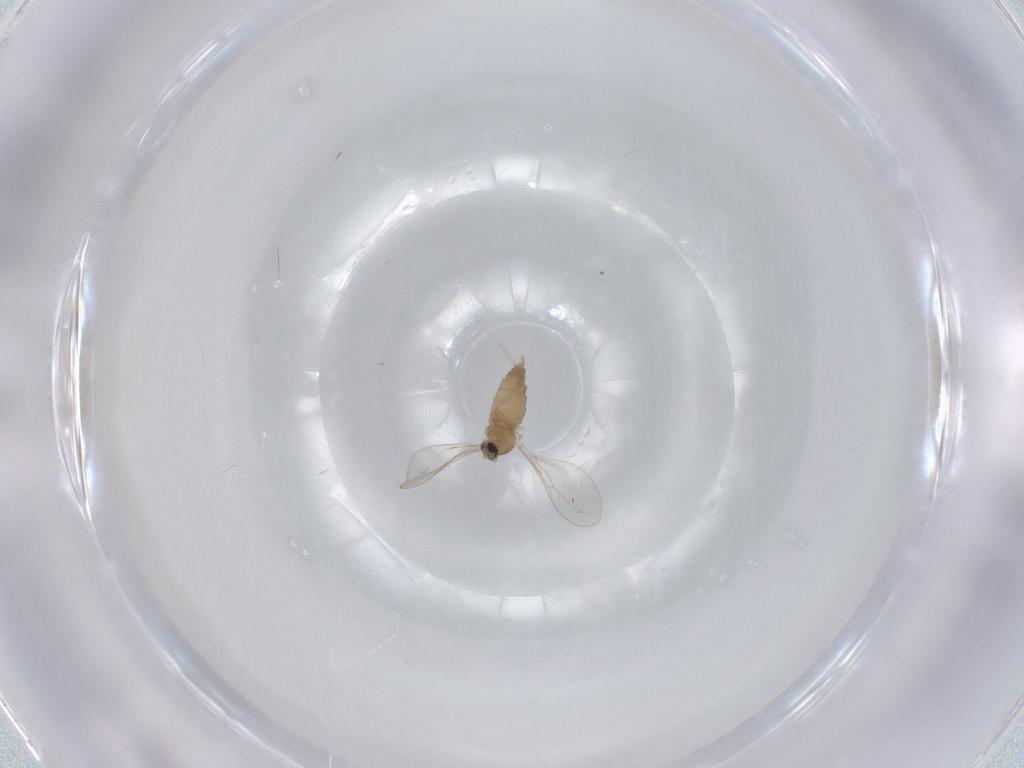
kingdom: Animalia
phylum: Arthropoda
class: Insecta
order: Diptera
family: Cecidomyiidae
